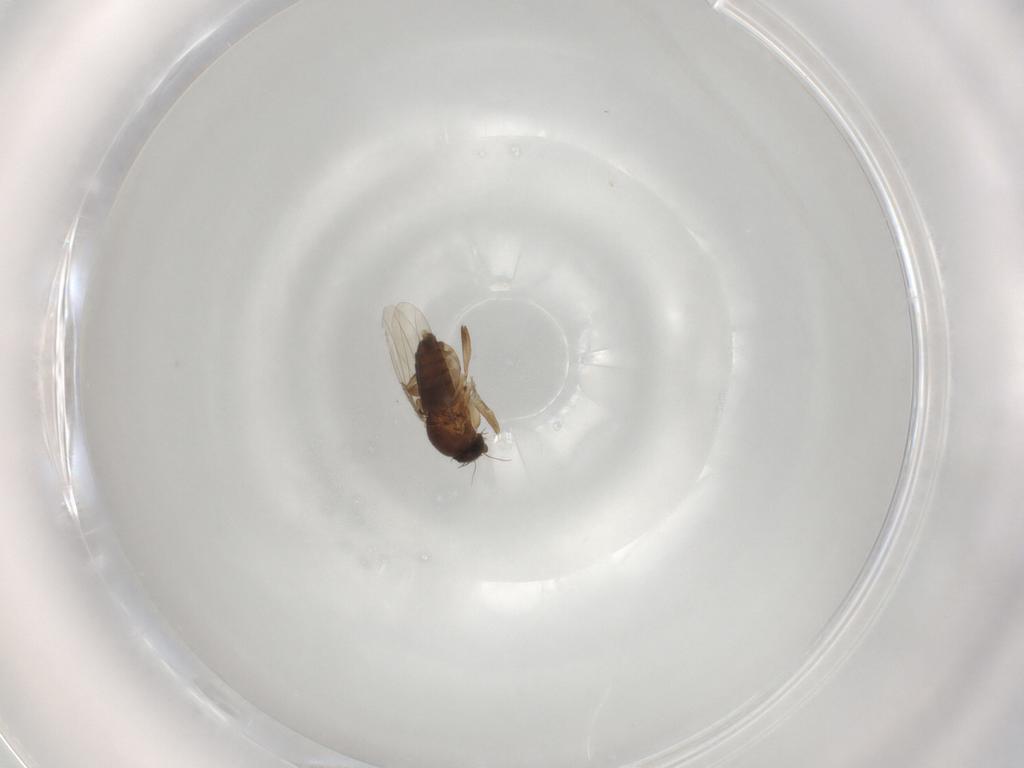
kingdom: Animalia
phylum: Arthropoda
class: Insecta
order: Diptera
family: Phoridae
